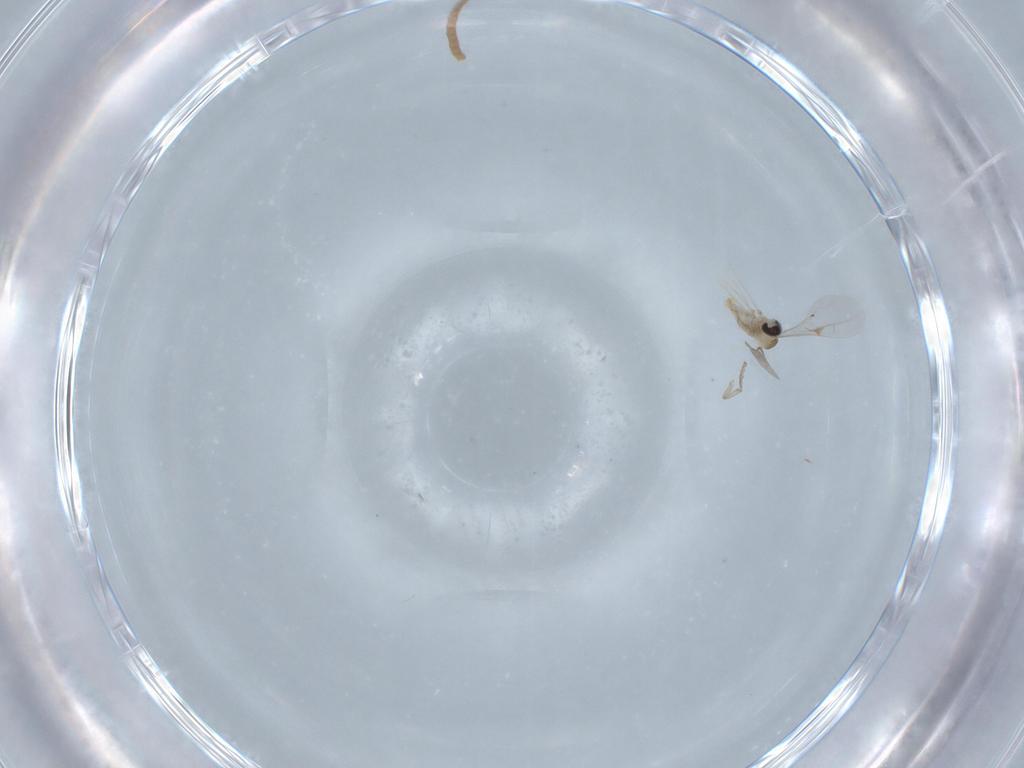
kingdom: Animalia
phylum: Arthropoda
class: Insecta
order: Diptera
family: Cecidomyiidae
